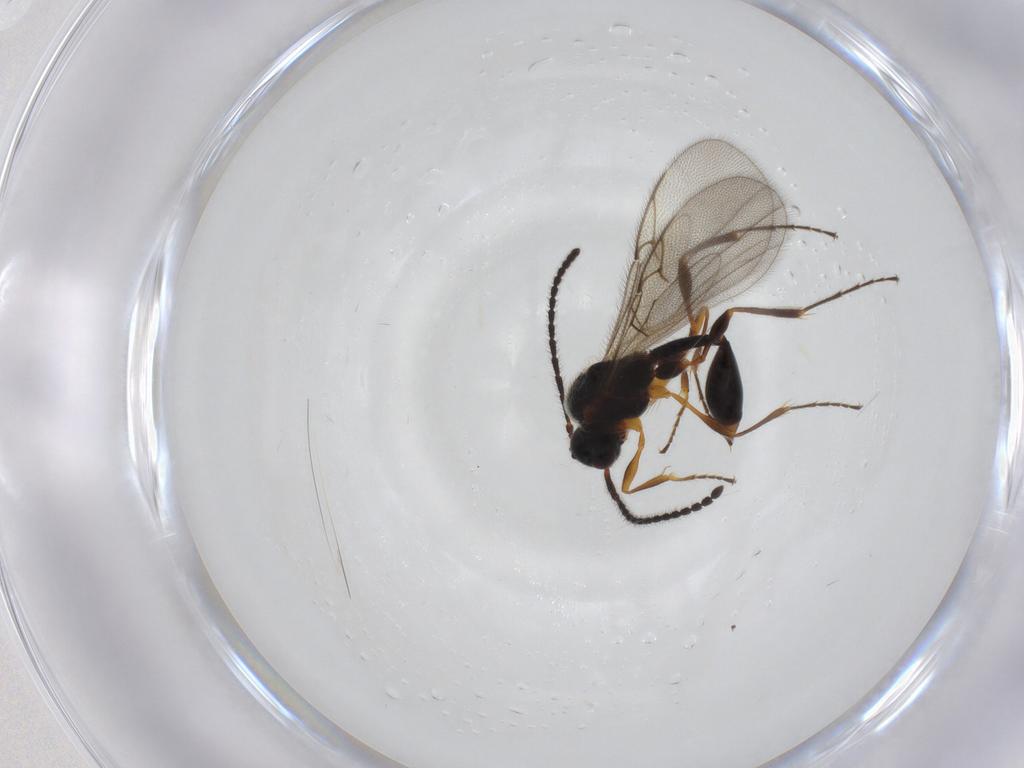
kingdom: Animalia
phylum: Arthropoda
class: Insecta
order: Hymenoptera
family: Diapriidae
